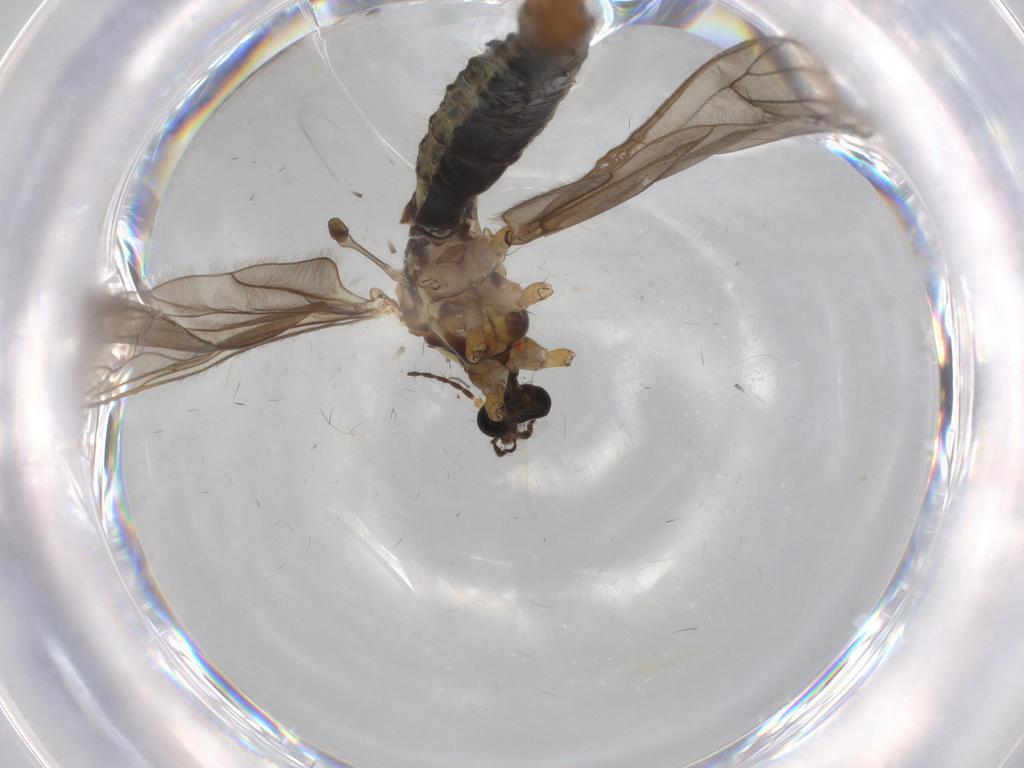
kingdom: Animalia
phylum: Arthropoda
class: Insecta
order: Diptera
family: Limoniidae
